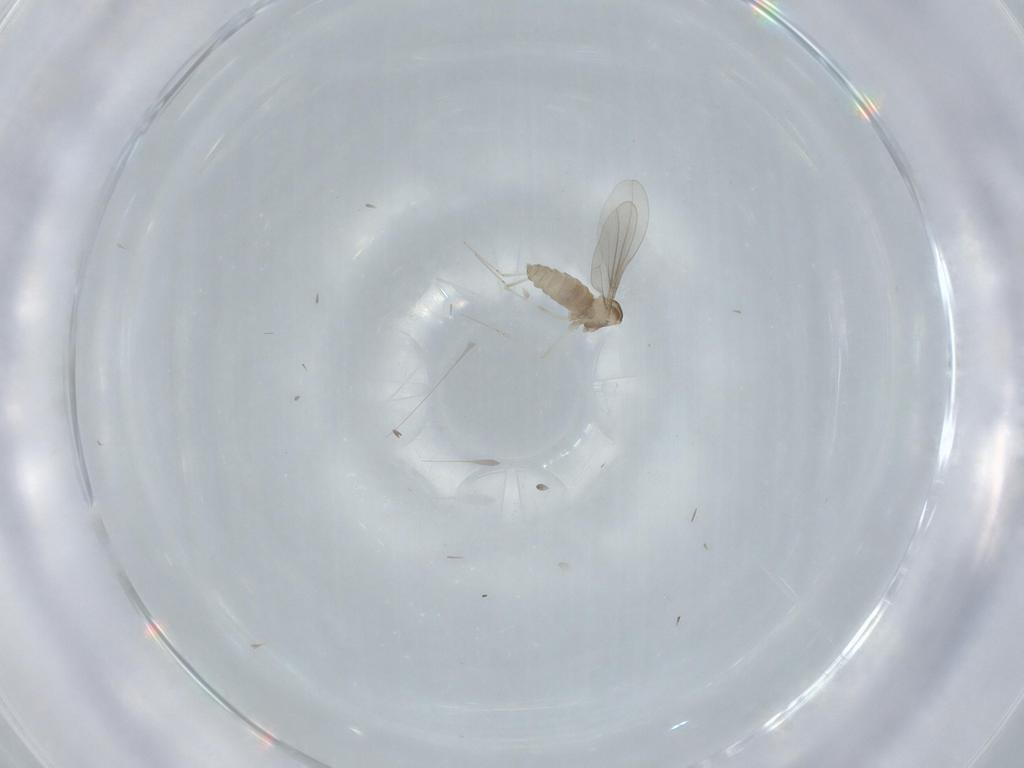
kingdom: Animalia
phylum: Arthropoda
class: Insecta
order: Diptera
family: Cecidomyiidae
